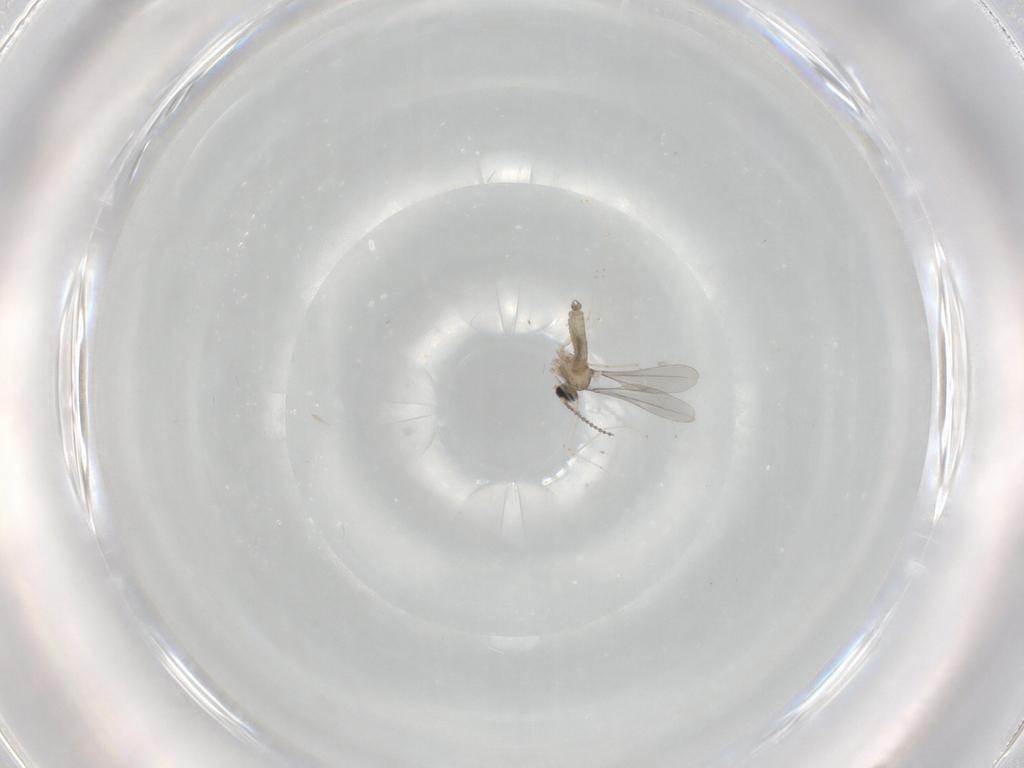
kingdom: Animalia
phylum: Arthropoda
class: Insecta
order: Diptera
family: Cecidomyiidae
